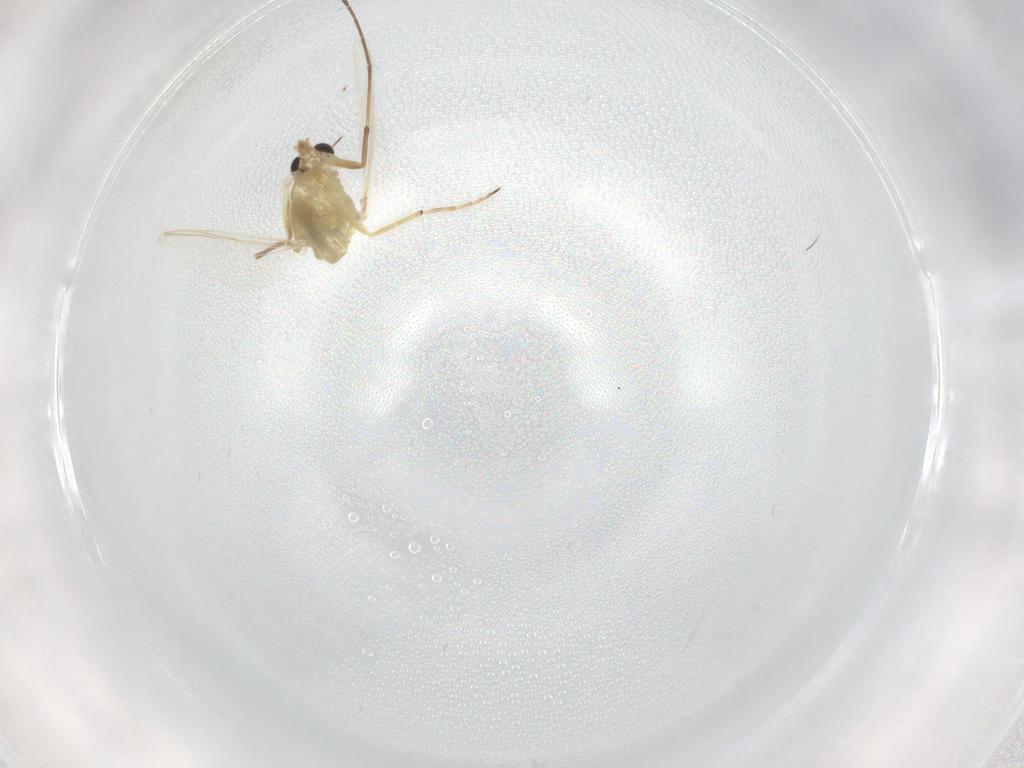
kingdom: Animalia
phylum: Arthropoda
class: Insecta
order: Diptera
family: Chironomidae
